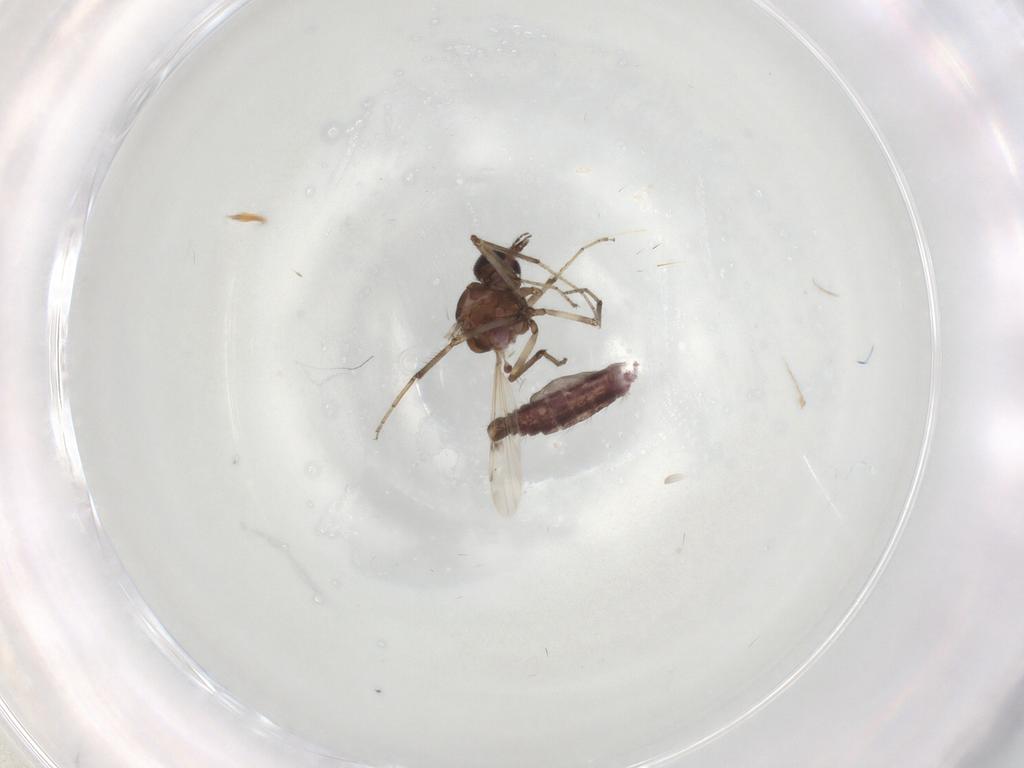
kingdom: Animalia
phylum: Arthropoda
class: Insecta
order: Diptera
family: Cecidomyiidae
